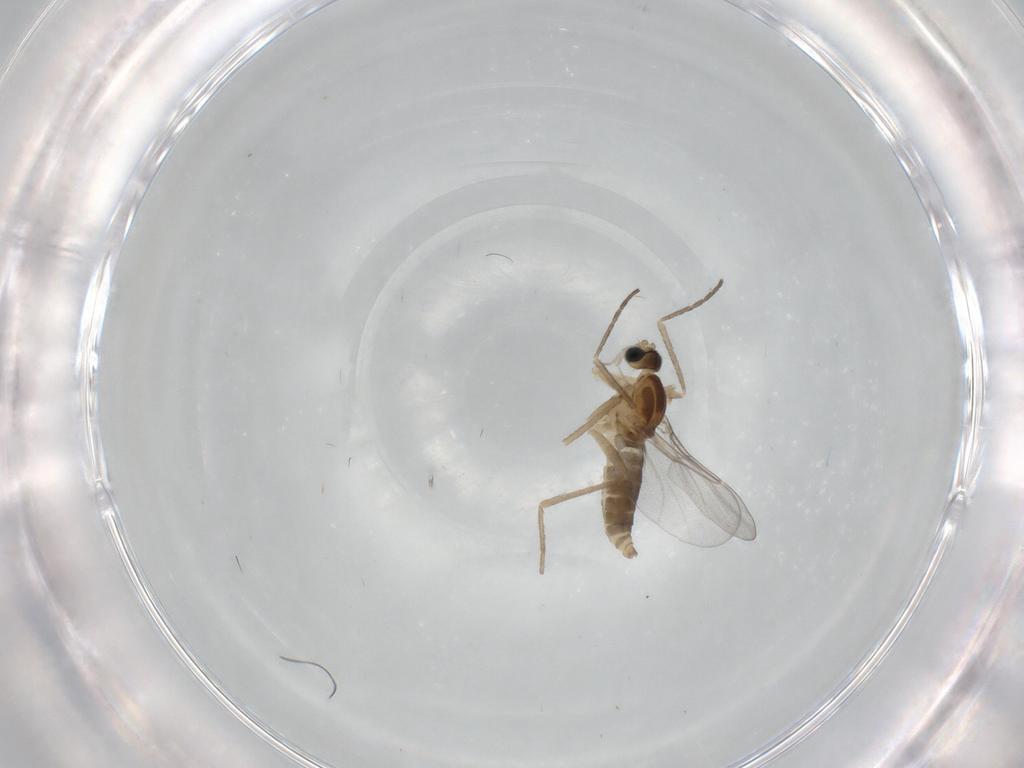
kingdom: Animalia
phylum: Arthropoda
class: Insecta
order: Diptera
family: Cecidomyiidae
